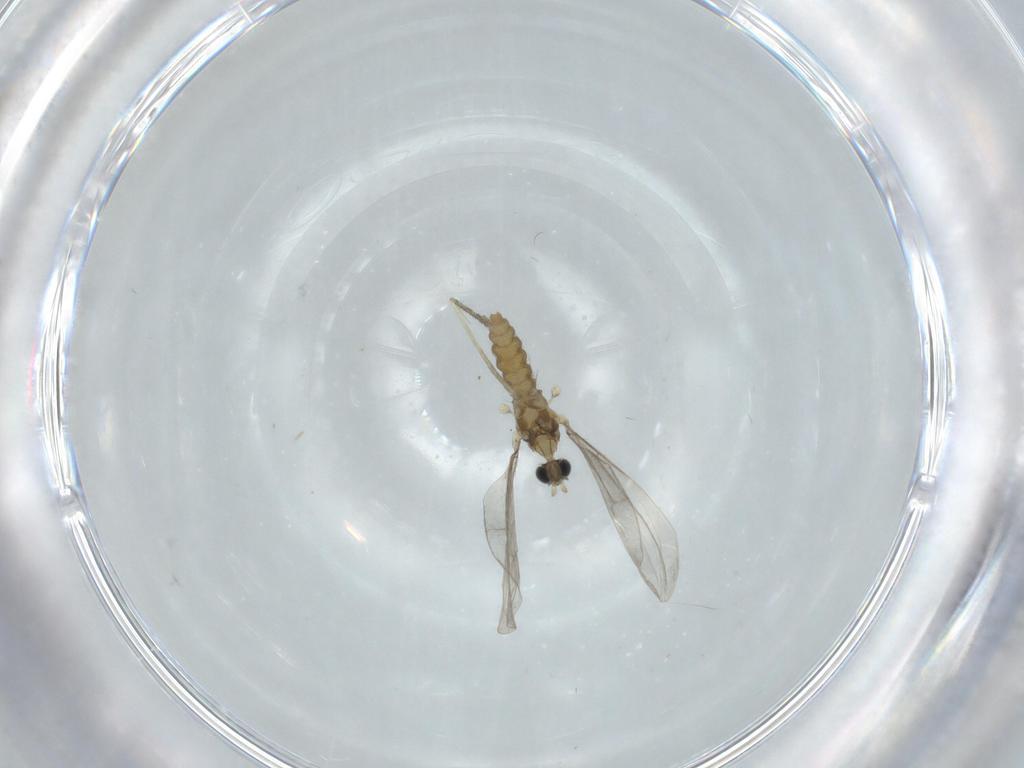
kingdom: Animalia
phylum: Arthropoda
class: Insecta
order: Diptera
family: Cecidomyiidae
